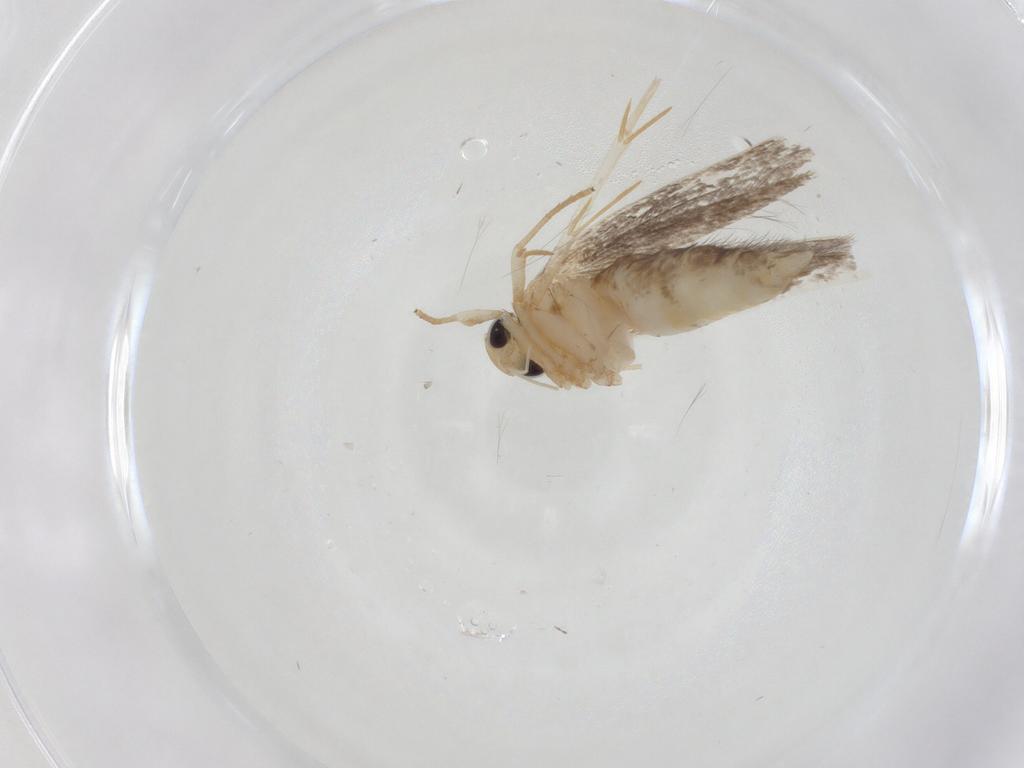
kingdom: Animalia
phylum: Arthropoda
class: Insecta
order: Lepidoptera
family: Cosmopterigidae
